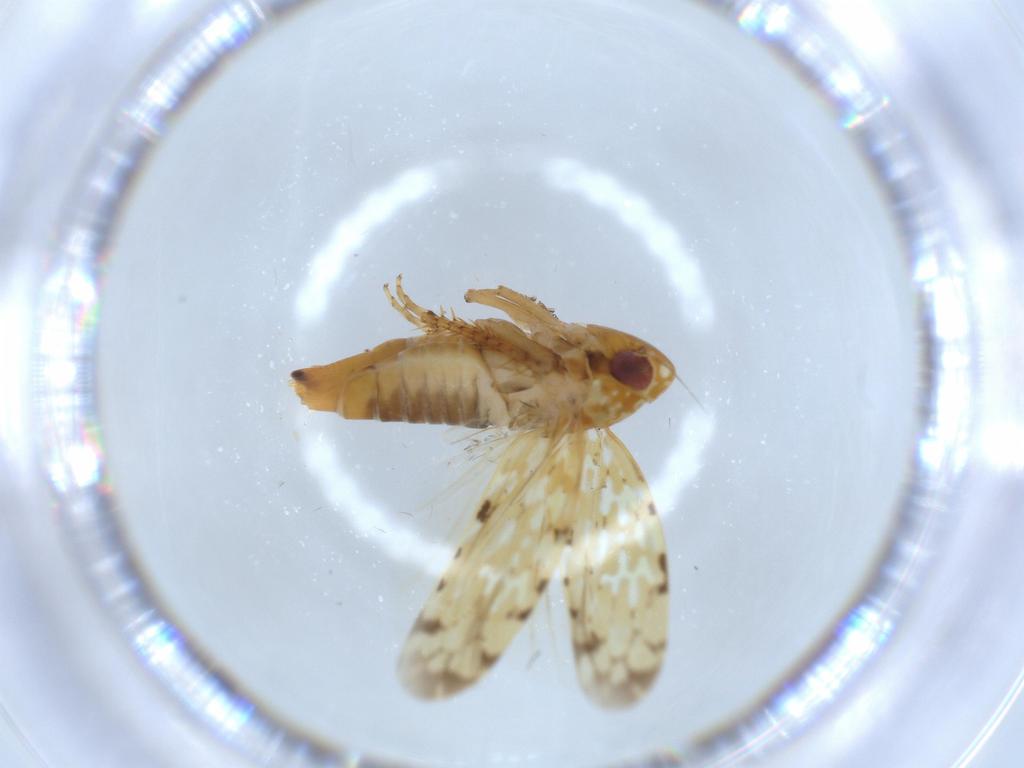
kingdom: Animalia
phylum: Arthropoda
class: Insecta
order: Hemiptera
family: Cicadellidae
